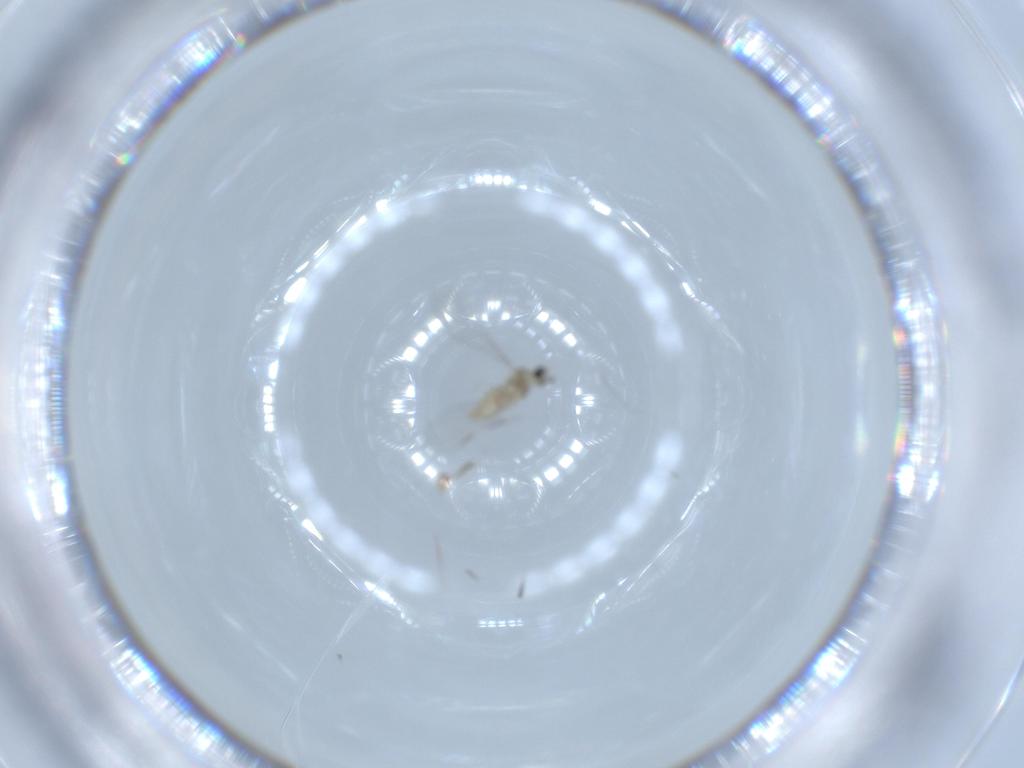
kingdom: Animalia
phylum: Arthropoda
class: Insecta
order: Diptera
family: Cecidomyiidae
